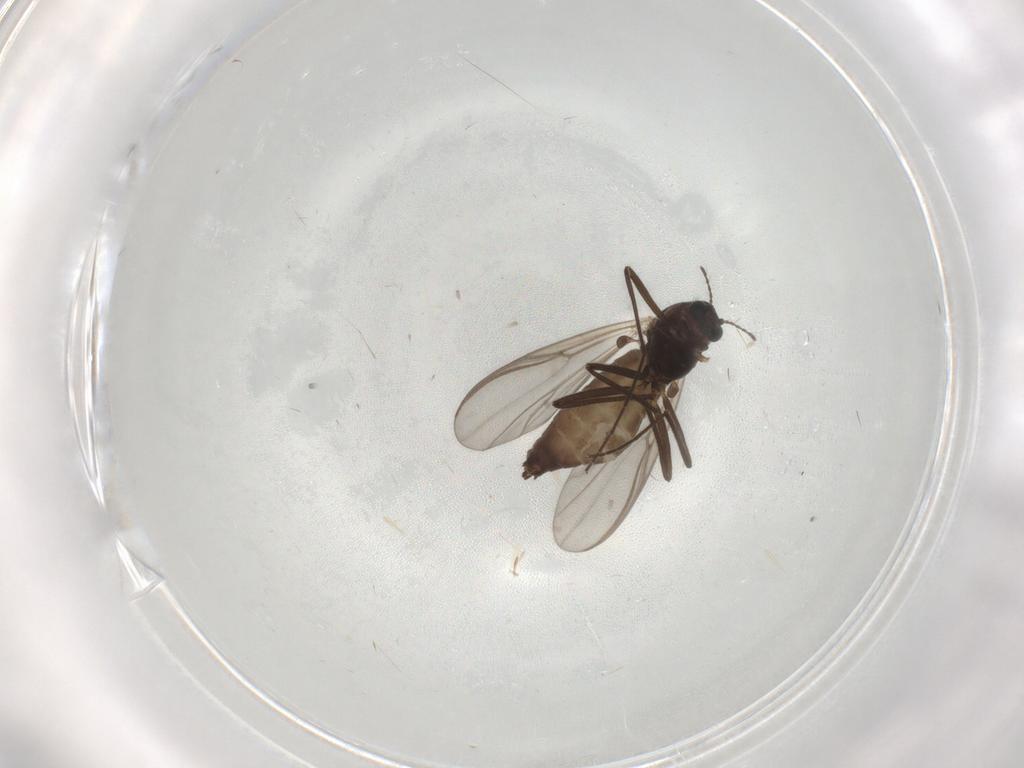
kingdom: Animalia
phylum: Arthropoda
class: Insecta
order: Diptera
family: Chironomidae
